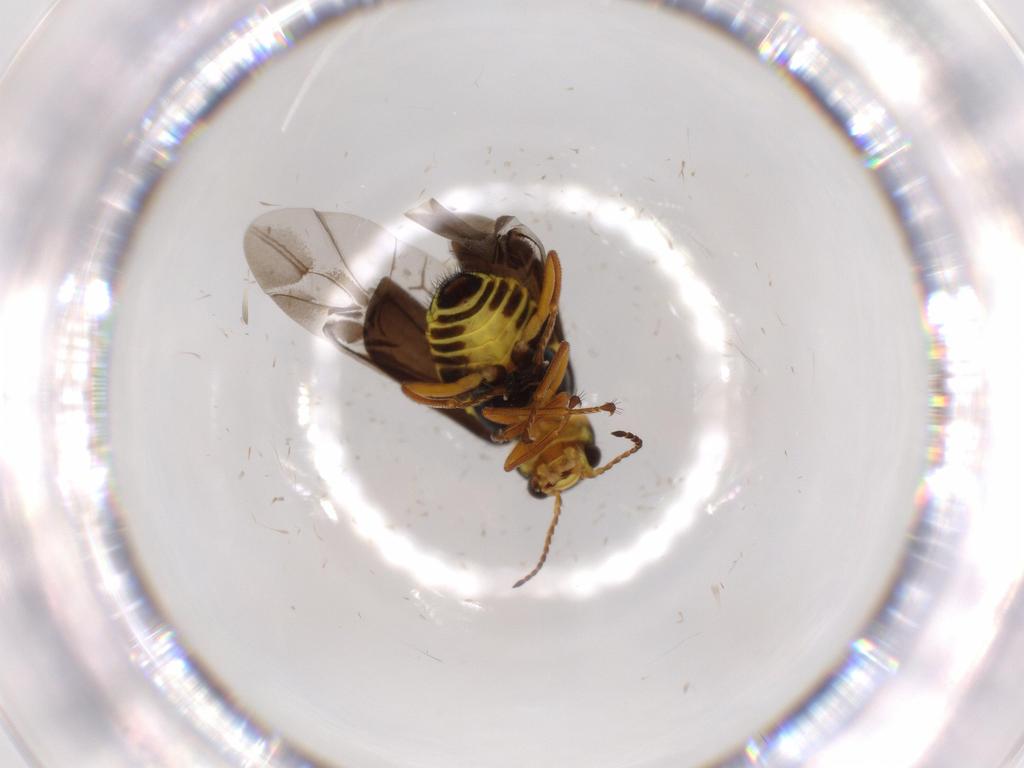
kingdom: Animalia
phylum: Arthropoda
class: Insecta
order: Coleoptera
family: Melyridae
